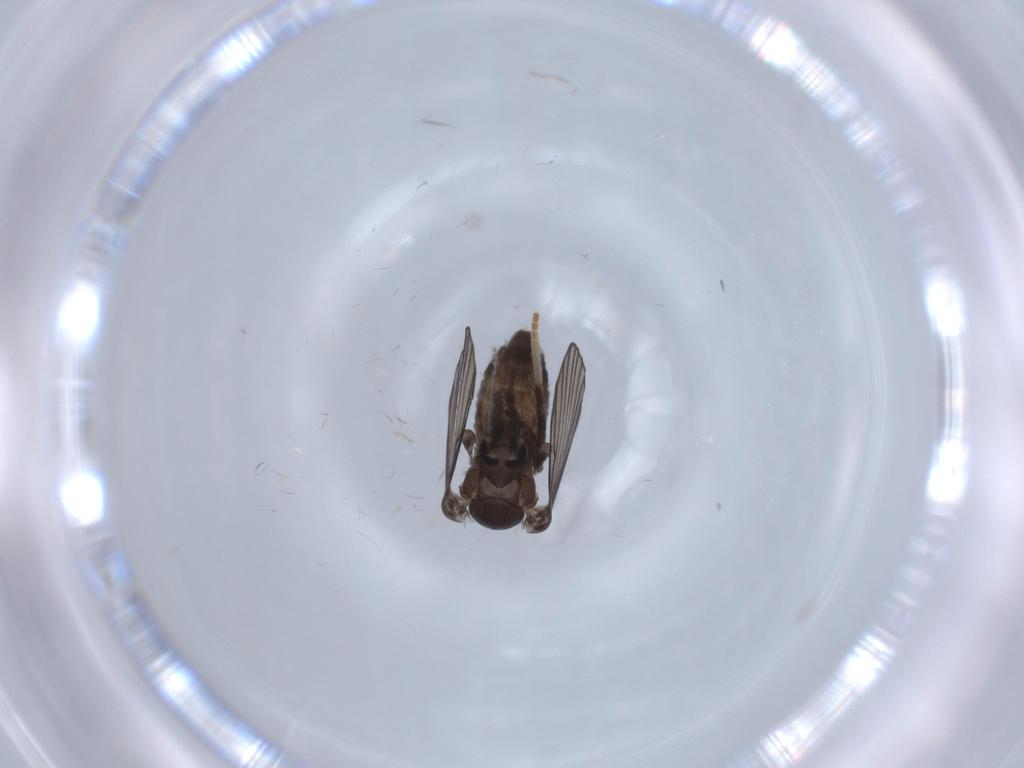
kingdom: Animalia
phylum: Arthropoda
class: Insecta
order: Diptera
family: Psychodidae
